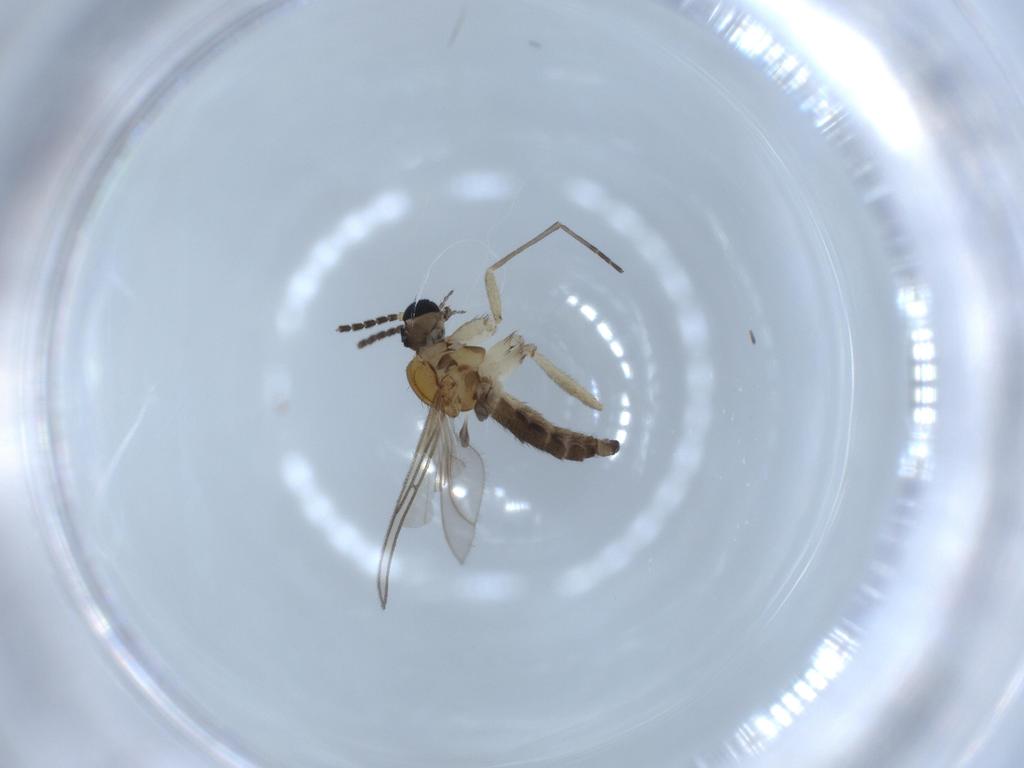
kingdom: Animalia
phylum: Arthropoda
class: Insecta
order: Diptera
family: Sciaridae
